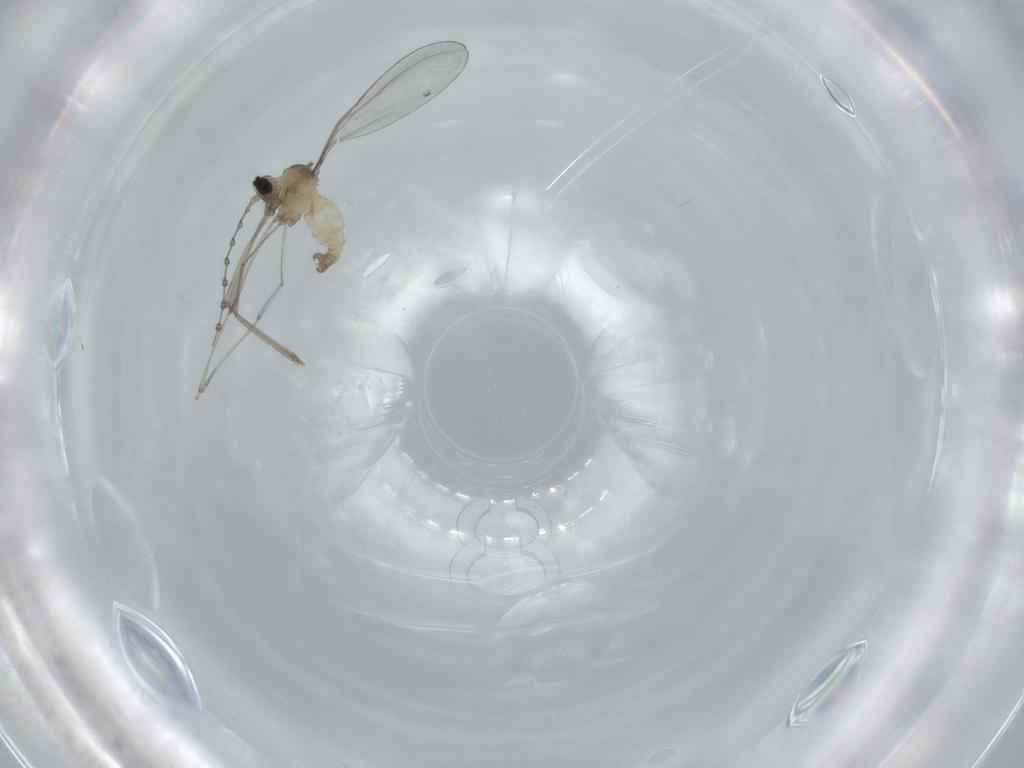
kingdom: Animalia
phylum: Arthropoda
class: Insecta
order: Diptera
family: Cecidomyiidae
